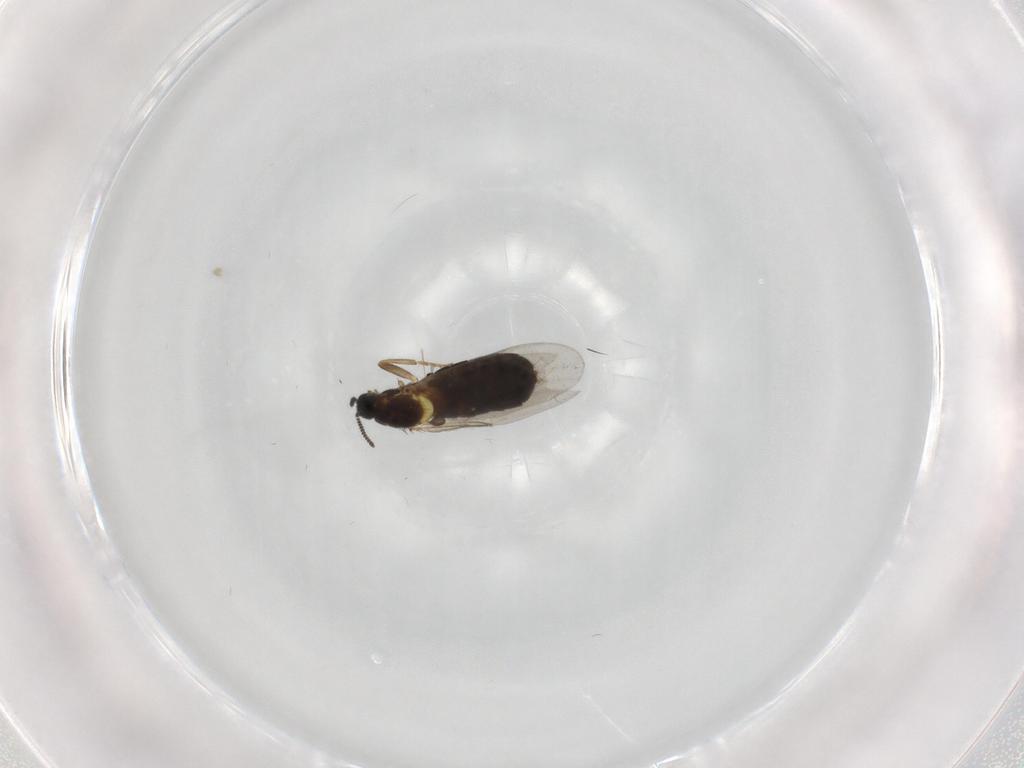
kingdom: Animalia
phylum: Arthropoda
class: Insecta
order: Diptera
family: Scatopsidae
